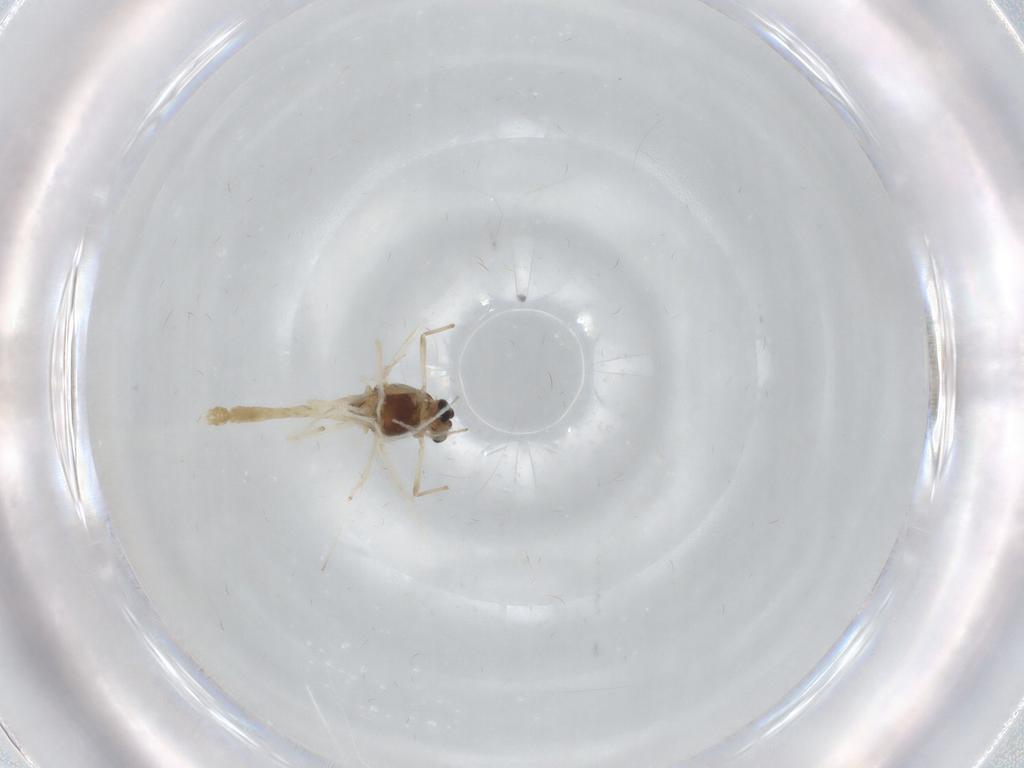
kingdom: Animalia
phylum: Arthropoda
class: Insecta
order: Diptera
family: Chironomidae
